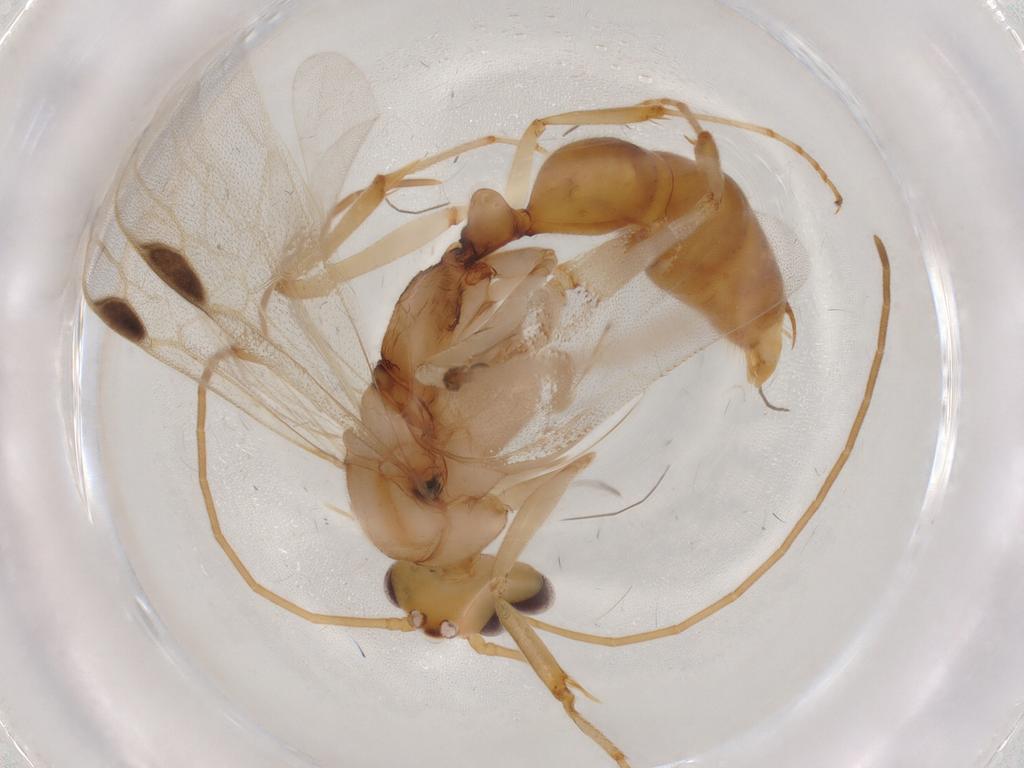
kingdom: Animalia
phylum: Arthropoda
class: Insecta
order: Hymenoptera
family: Formicidae
